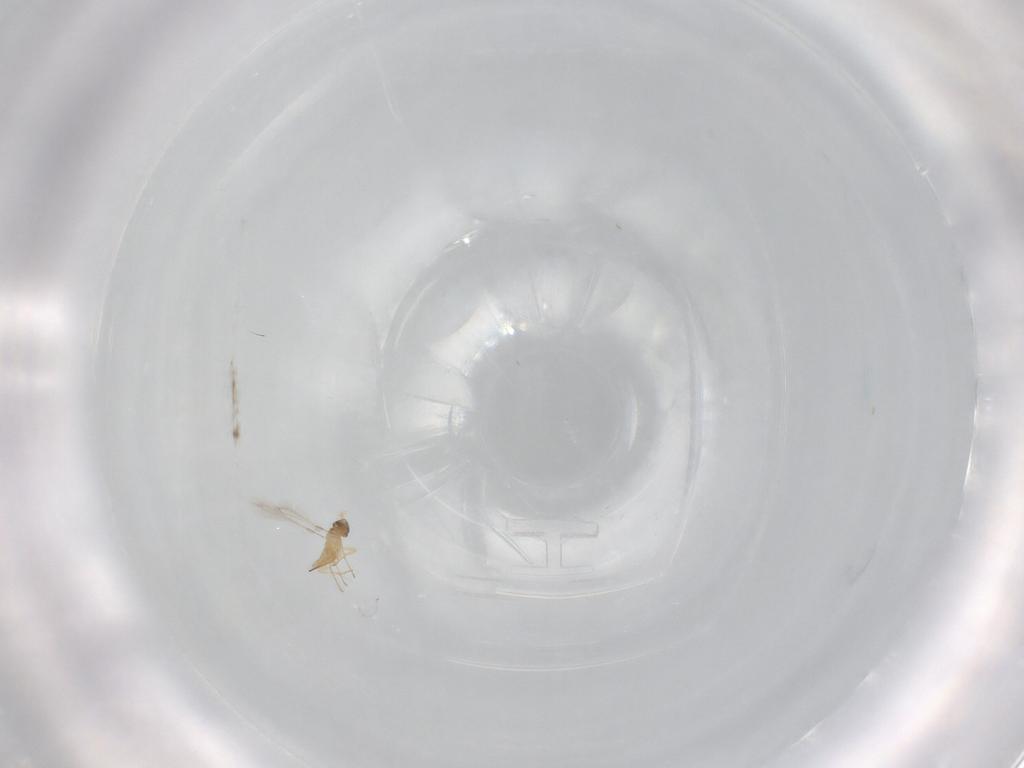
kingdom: Animalia
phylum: Arthropoda
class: Insecta
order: Hymenoptera
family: Mymaridae
